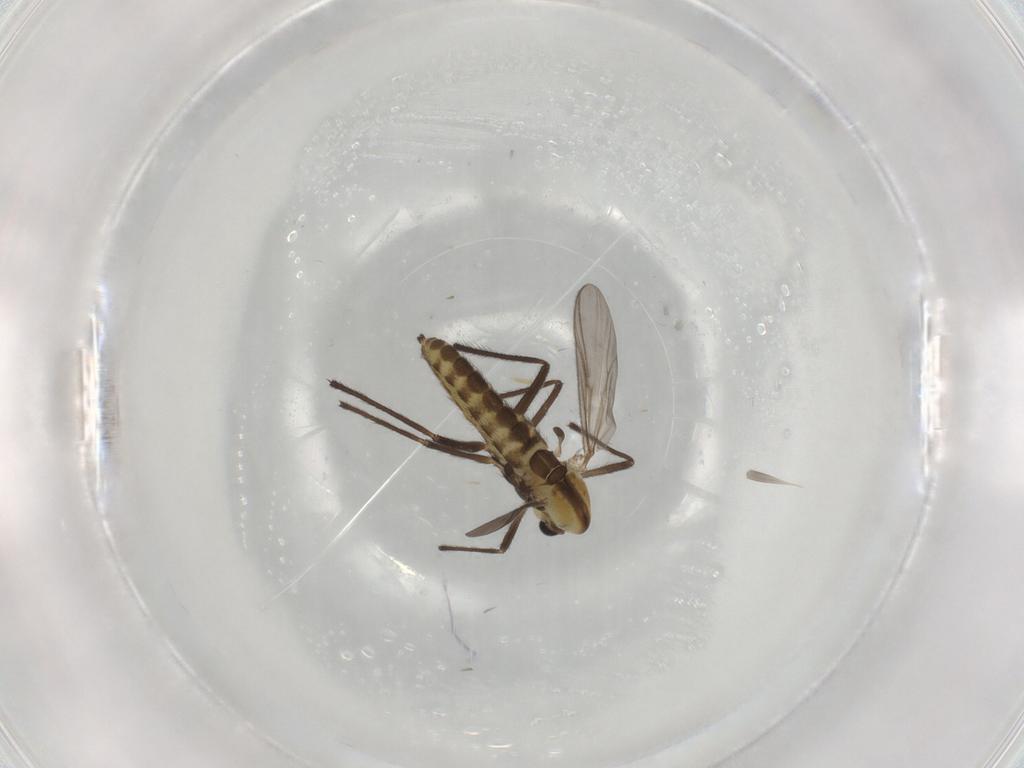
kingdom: Animalia
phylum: Arthropoda
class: Insecta
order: Diptera
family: Chironomidae
